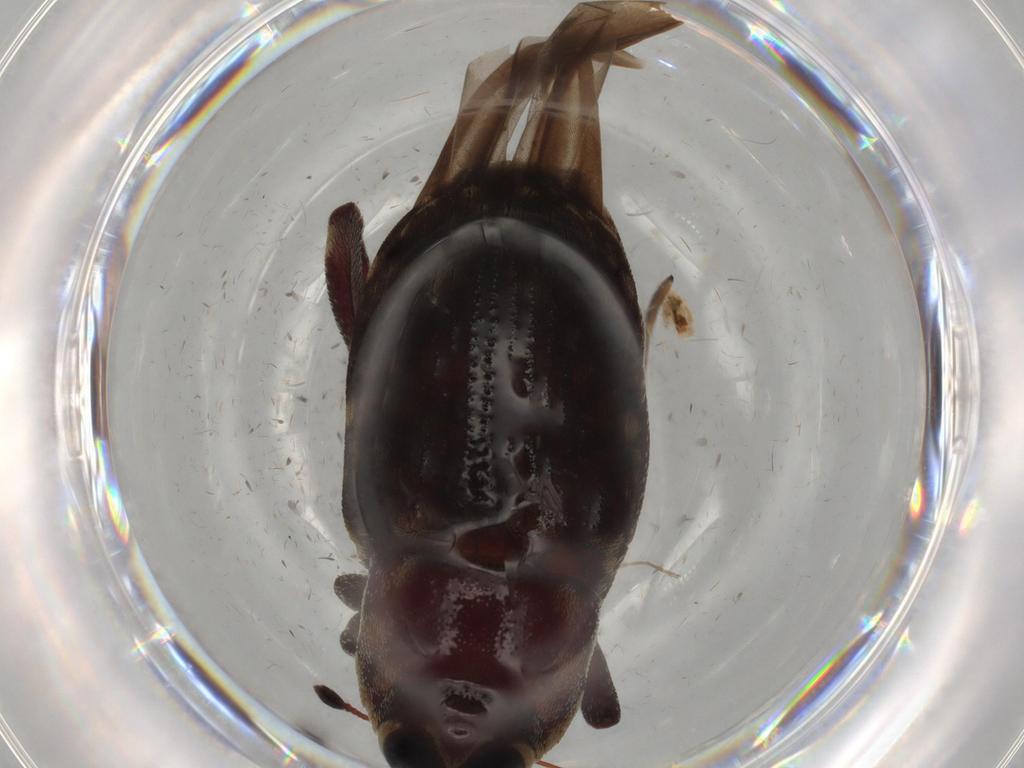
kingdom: Animalia
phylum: Arthropoda
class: Insecta
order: Coleoptera
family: Curculionidae
